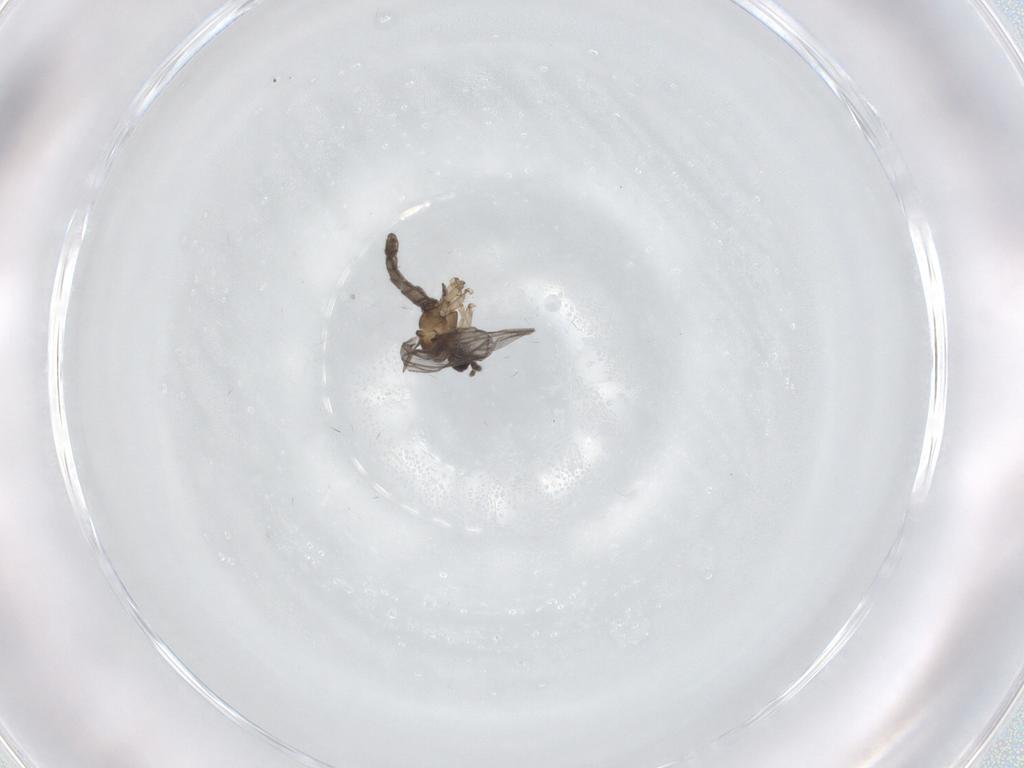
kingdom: Animalia
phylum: Arthropoda
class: Insecta
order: Diptera
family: Chironomidae
